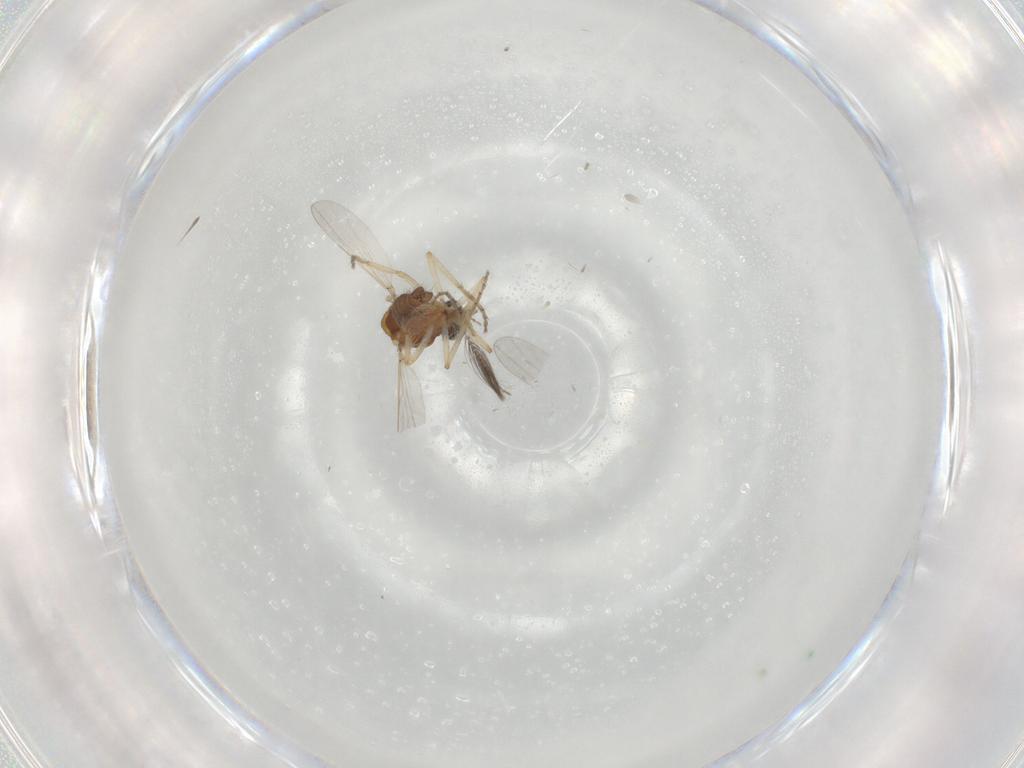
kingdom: Animalia
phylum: Arthropoda
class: Insecta
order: Diptera
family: Ceratopogonidae
